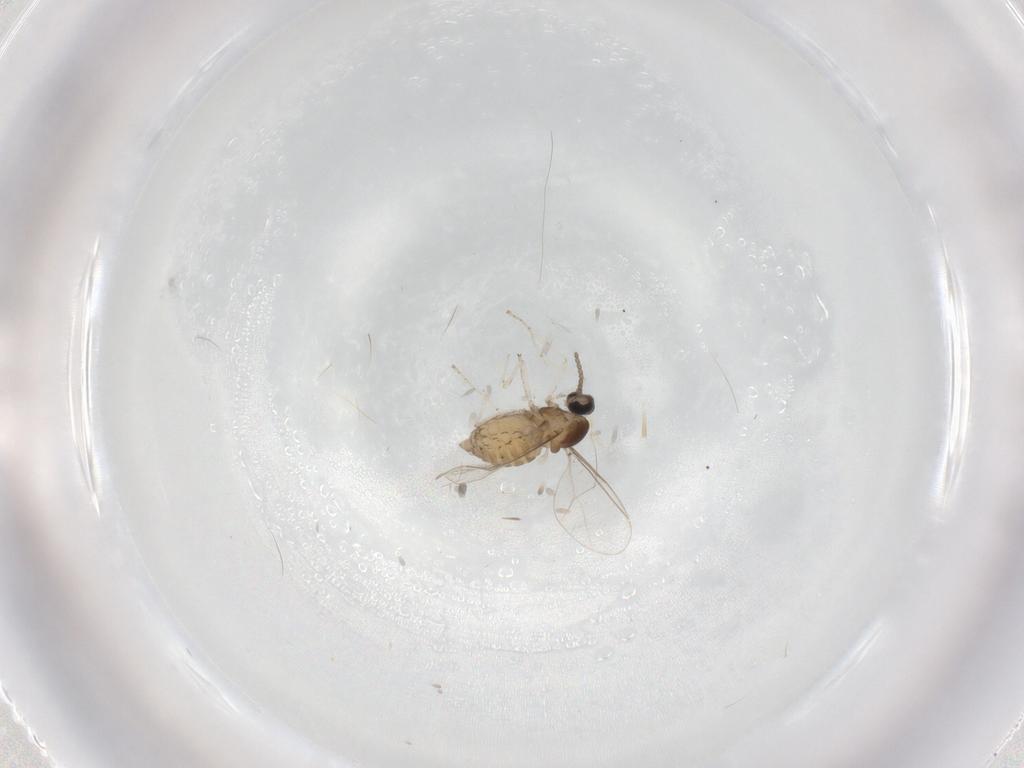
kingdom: Animalia
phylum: Arthropoda
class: Insecta
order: Diptera
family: Cecidomyiidae
